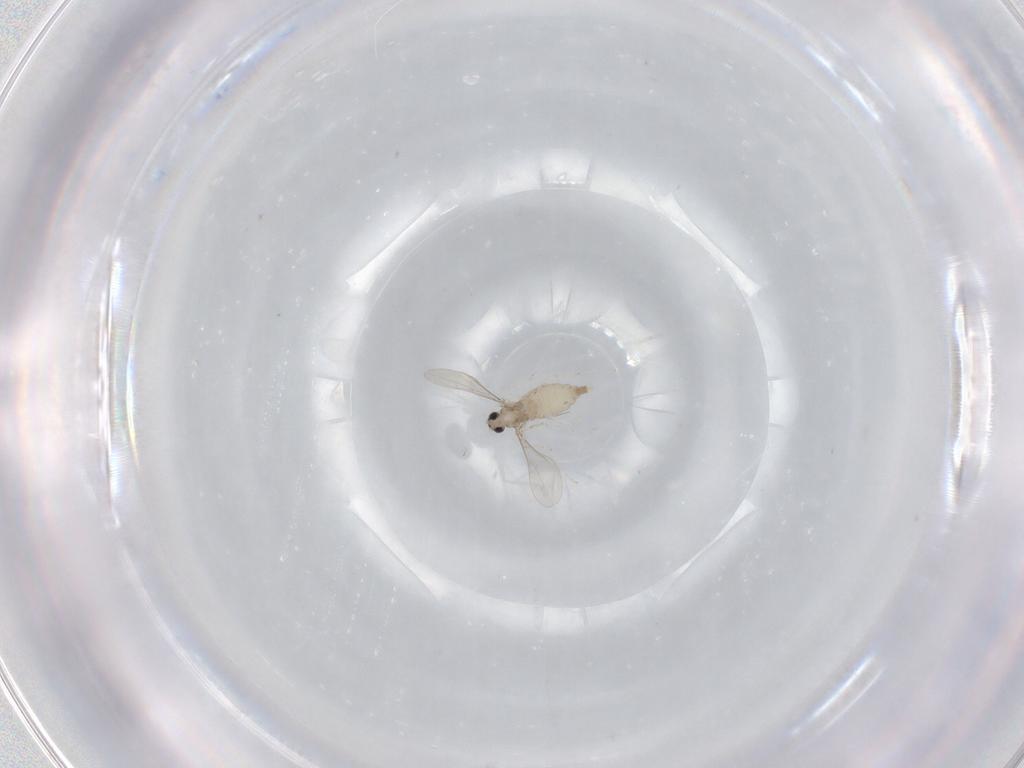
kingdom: Animalia
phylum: Arthropoda
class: Insecta
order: Diptera
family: Cecidomyiidae
